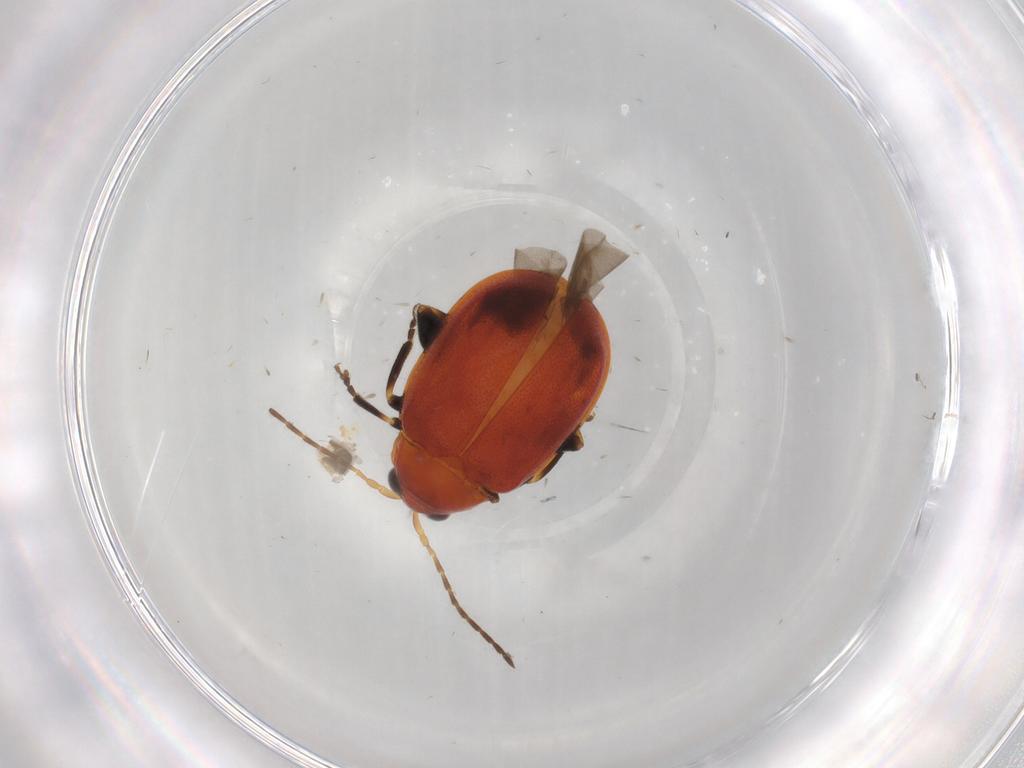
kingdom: Animalia
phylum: Arthropoda
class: Insecta
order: Coleoptera
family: Chrysomelidae
